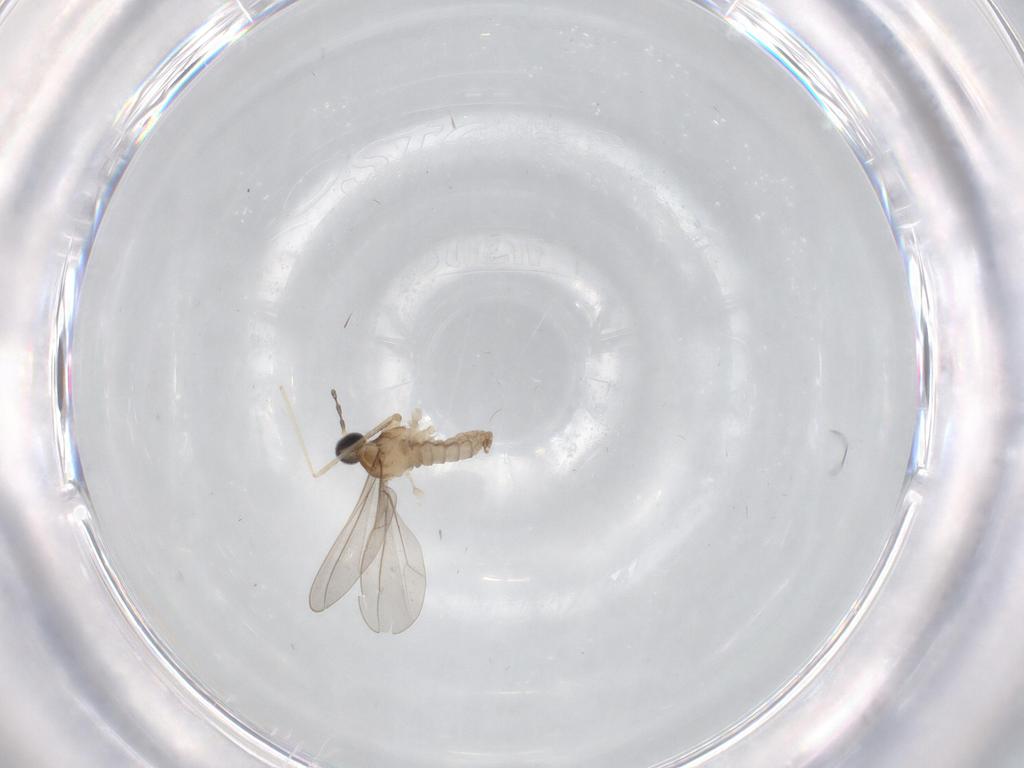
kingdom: Animalia
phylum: Arthropoda
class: Insecta
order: Diptera
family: Cecidomyiidae
